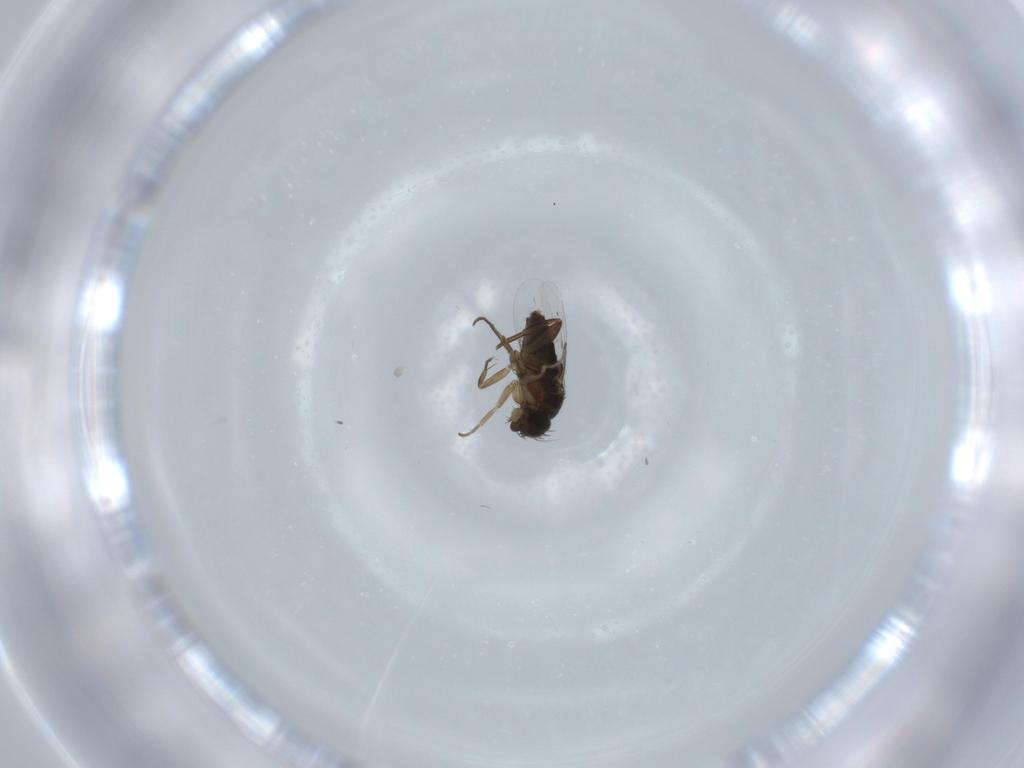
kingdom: Animalia
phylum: Arthropoda
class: Insecta
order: Diptera
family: Phoridae
